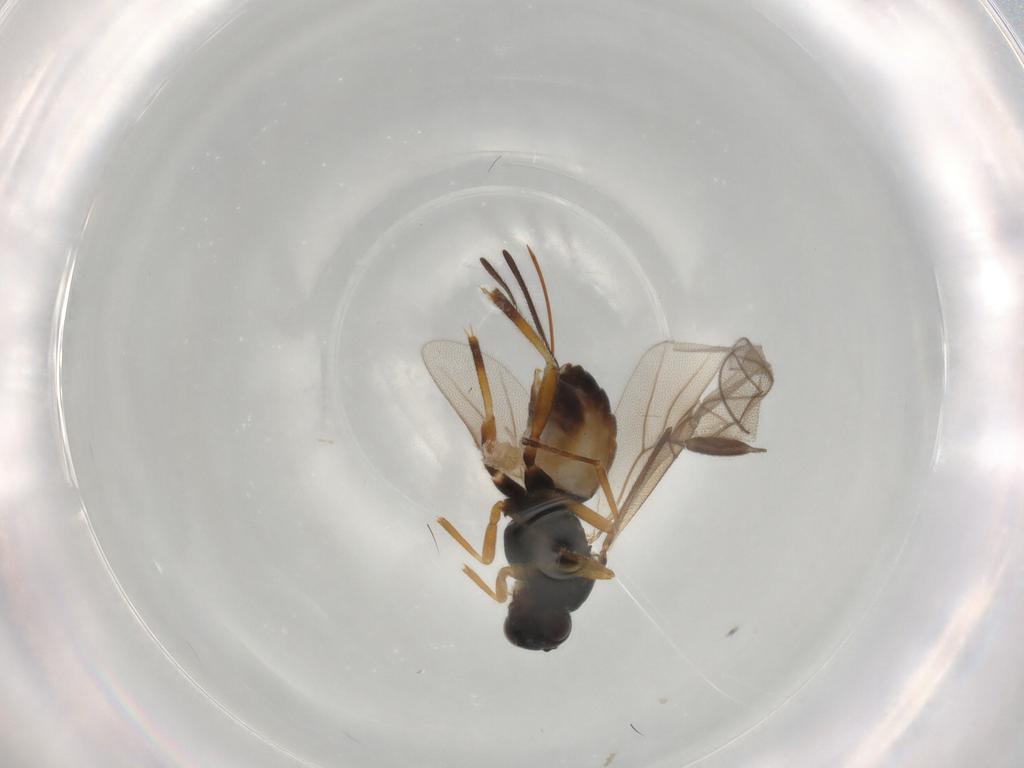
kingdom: Animalia
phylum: Arthropoda
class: Insecta
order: Hymenoptera
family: Braconidae
